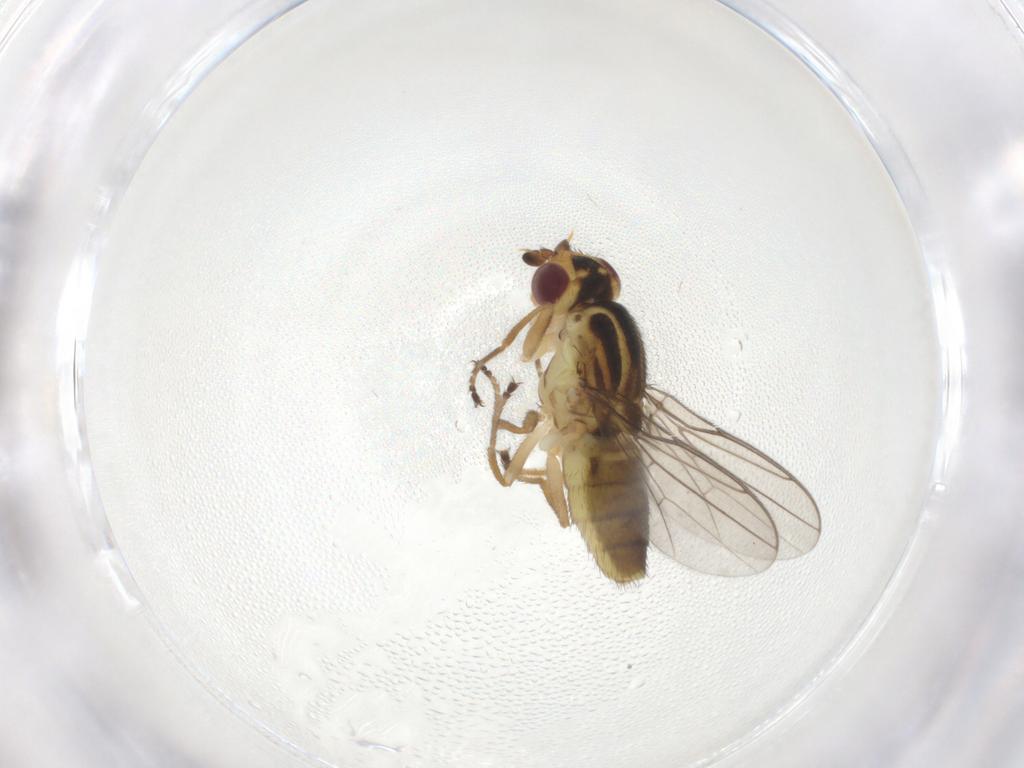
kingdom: Animalia
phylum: Arthropoda
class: Insecta
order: Diptera
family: Chloropidae
